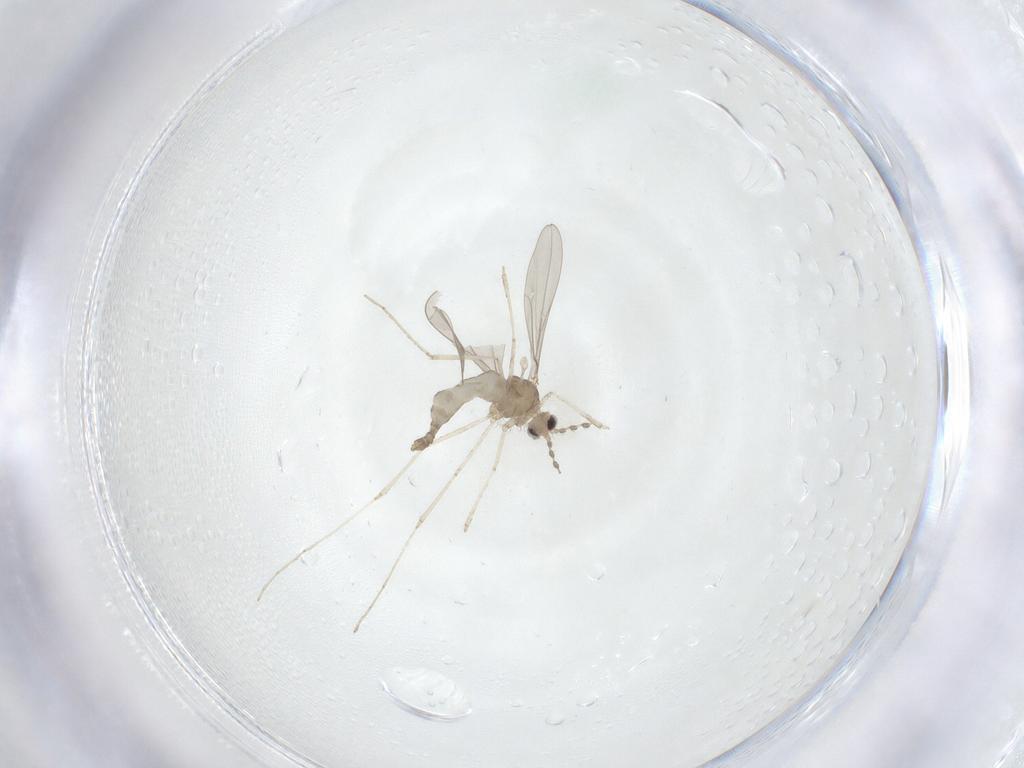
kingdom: Animalia
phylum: Arthropoda
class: Insecta
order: Diptera
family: Cecidomyiidae
